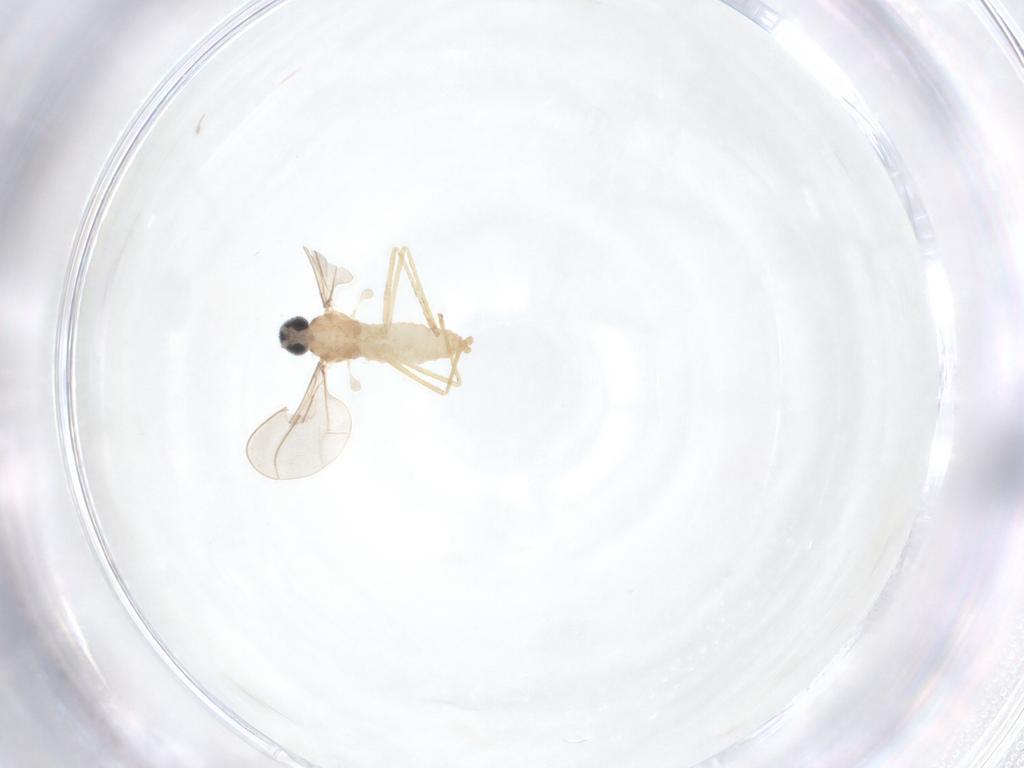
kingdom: Animalia
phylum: Arthropoda
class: Insecta
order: Diptera
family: Cecidomyiidae
